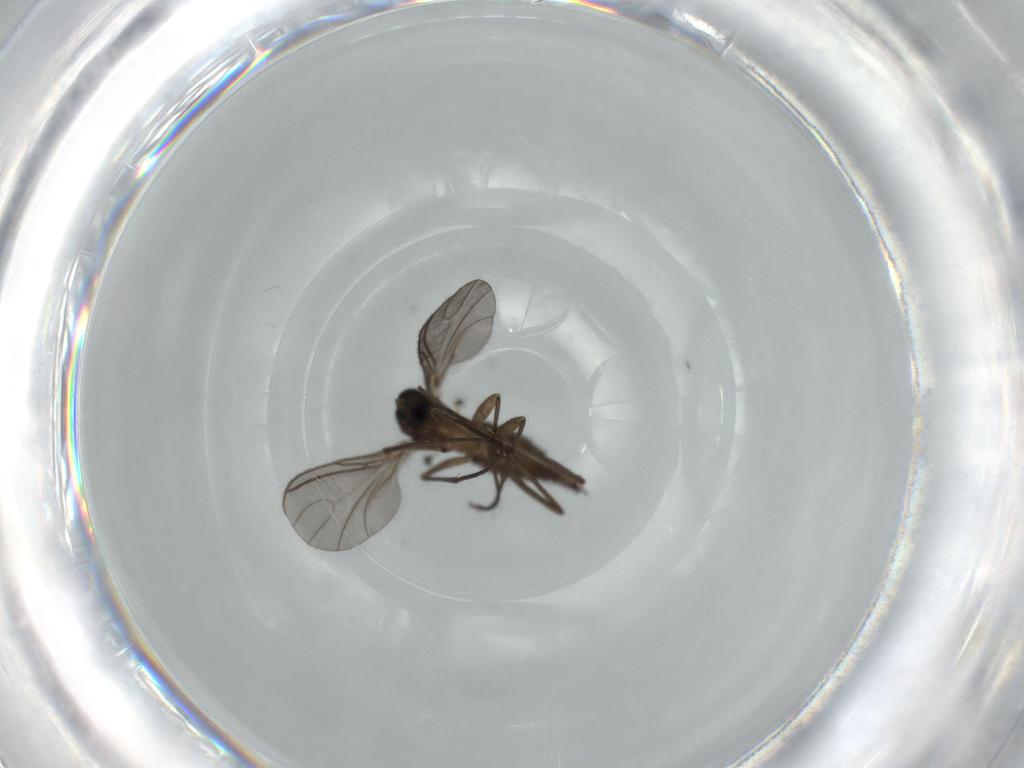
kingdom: Animalia
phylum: Arthropoda
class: Insecta
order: Diptera
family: Sciaridae
